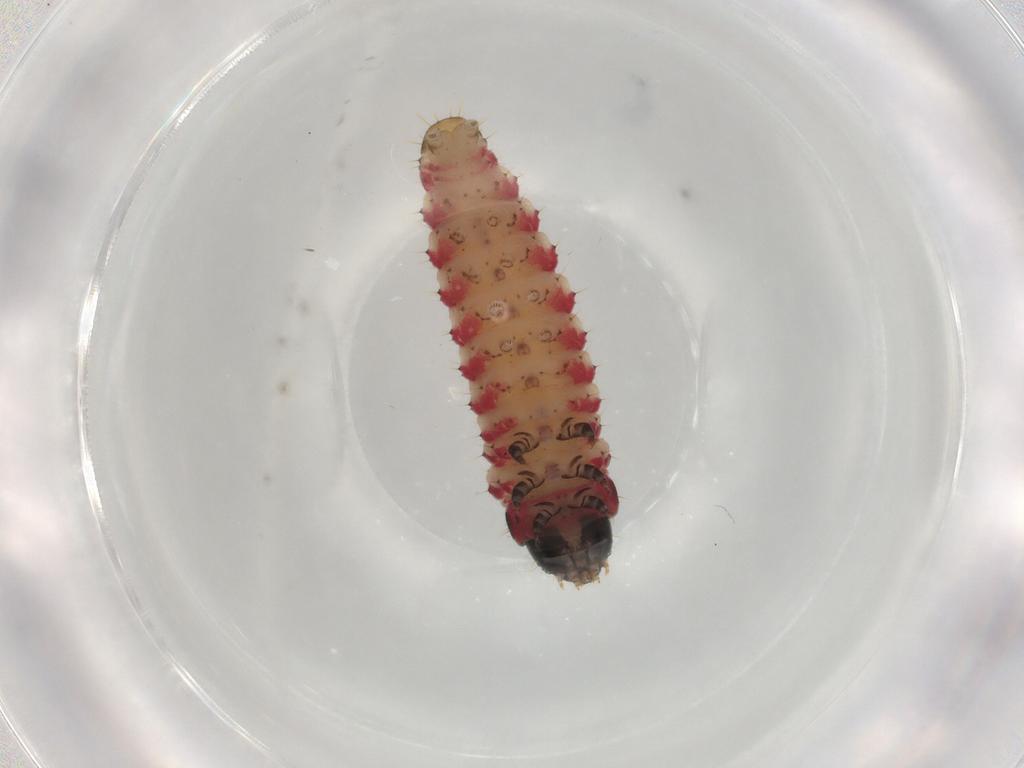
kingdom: Animalia
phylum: Arthropoda
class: Insecta
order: Lepidoptera
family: Gelechiidae
